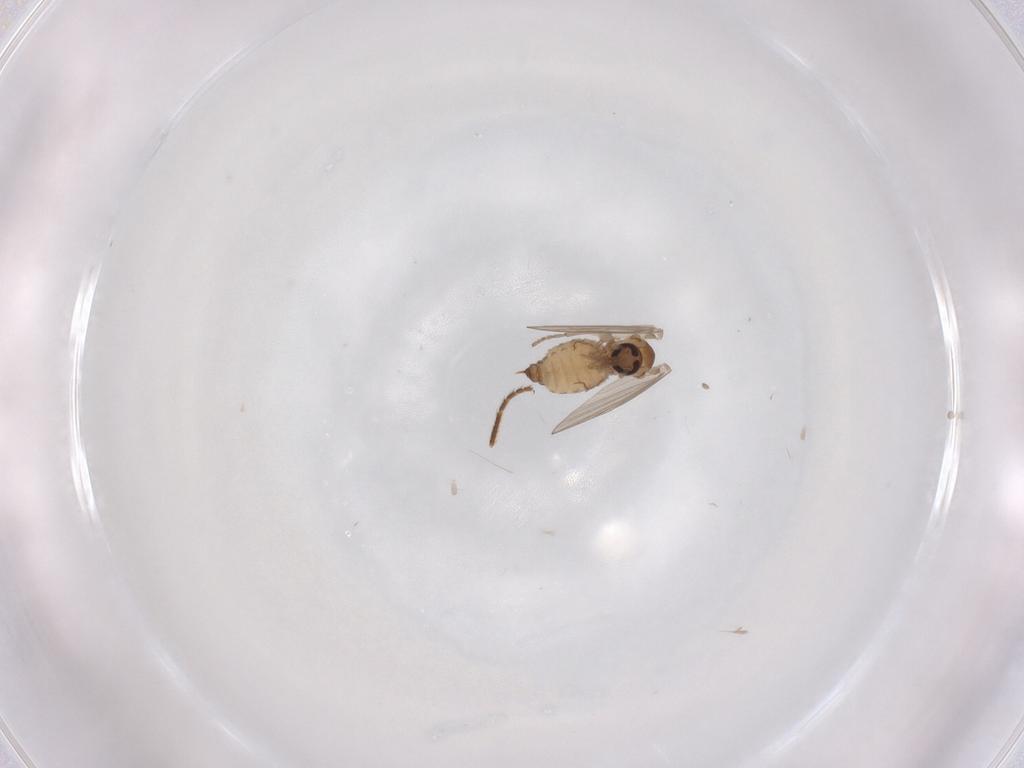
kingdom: Animalia
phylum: Arthropoda
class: Insecta
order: Diptera
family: Psychodidae
